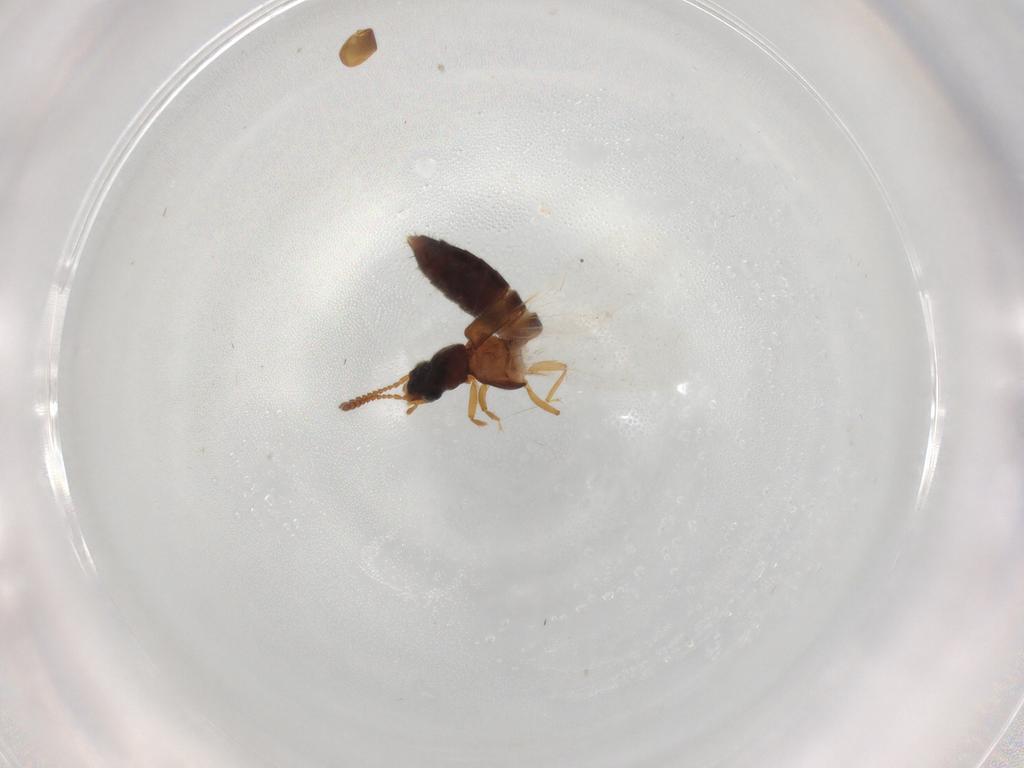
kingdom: Animalia
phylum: Arthropoda
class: Insecta
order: Coleoptera
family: Staphylinidae
